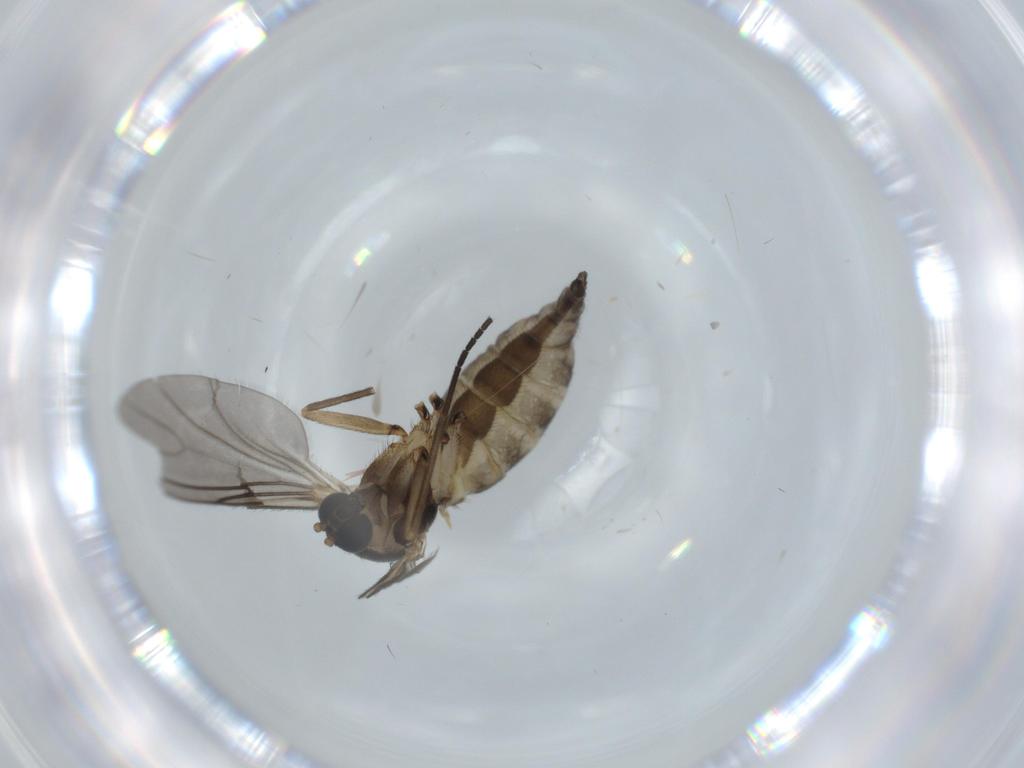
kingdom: Animalia
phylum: Arthropoda
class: Insecta
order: Diptera
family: Sciaridae
